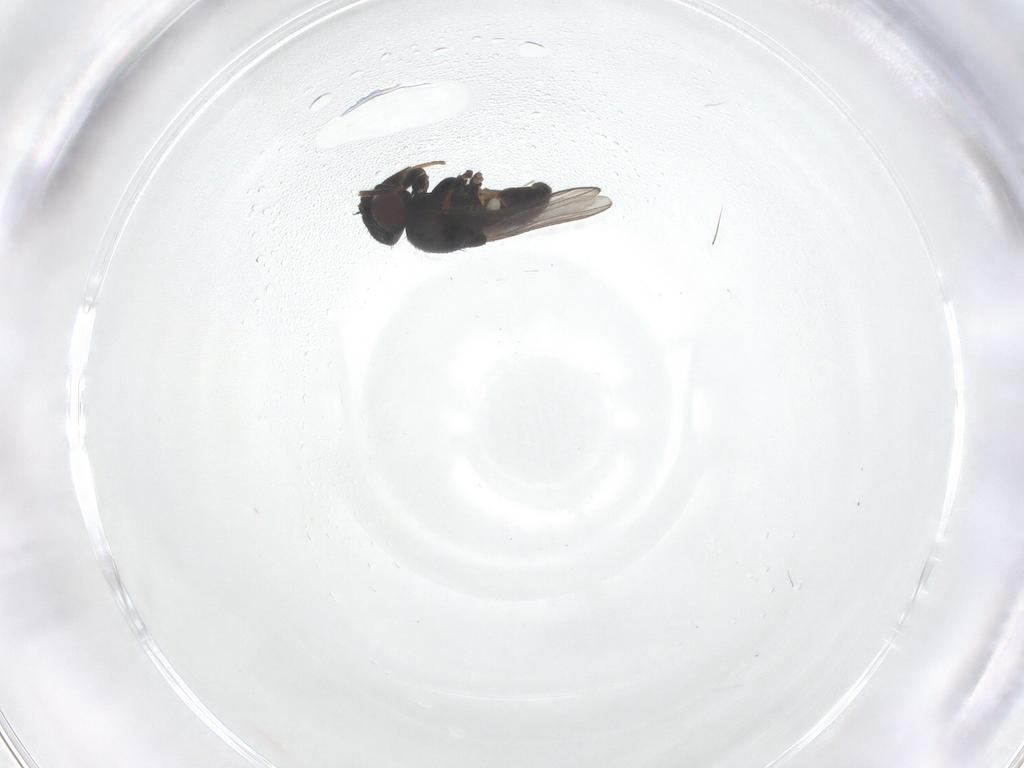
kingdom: Animalia
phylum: Arthropoda
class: Insecta
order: Diptera
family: Chloropidae
